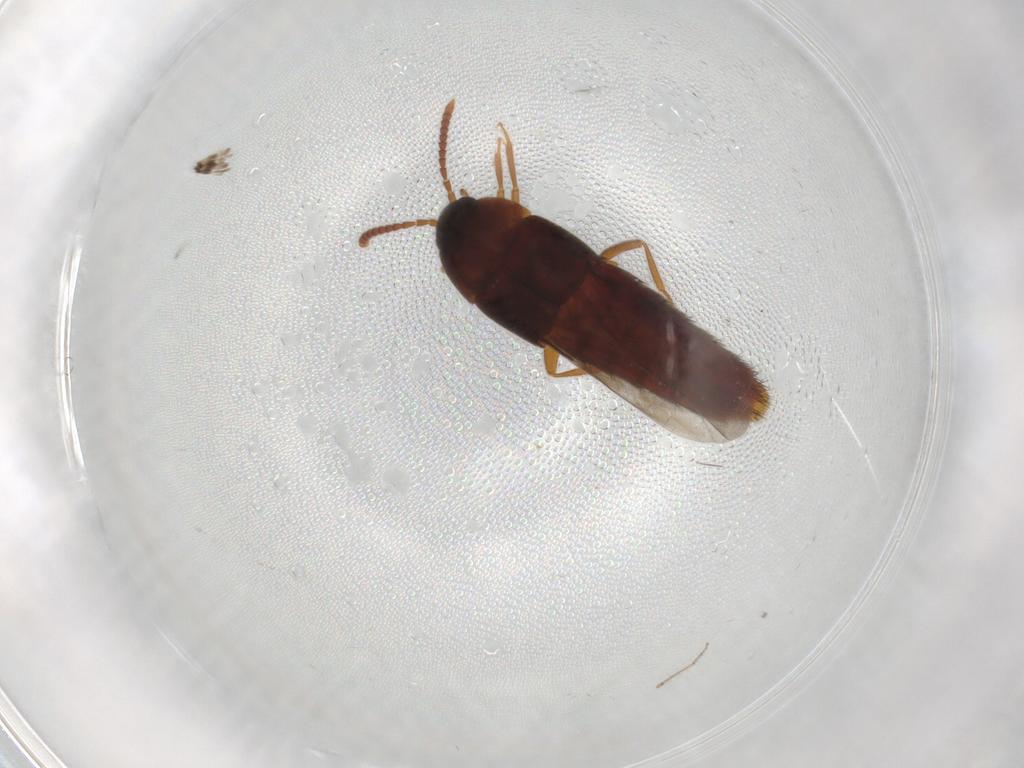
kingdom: Animalia
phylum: Arthropoda
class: Insecta
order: Coleoptera
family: Staphylinidae
